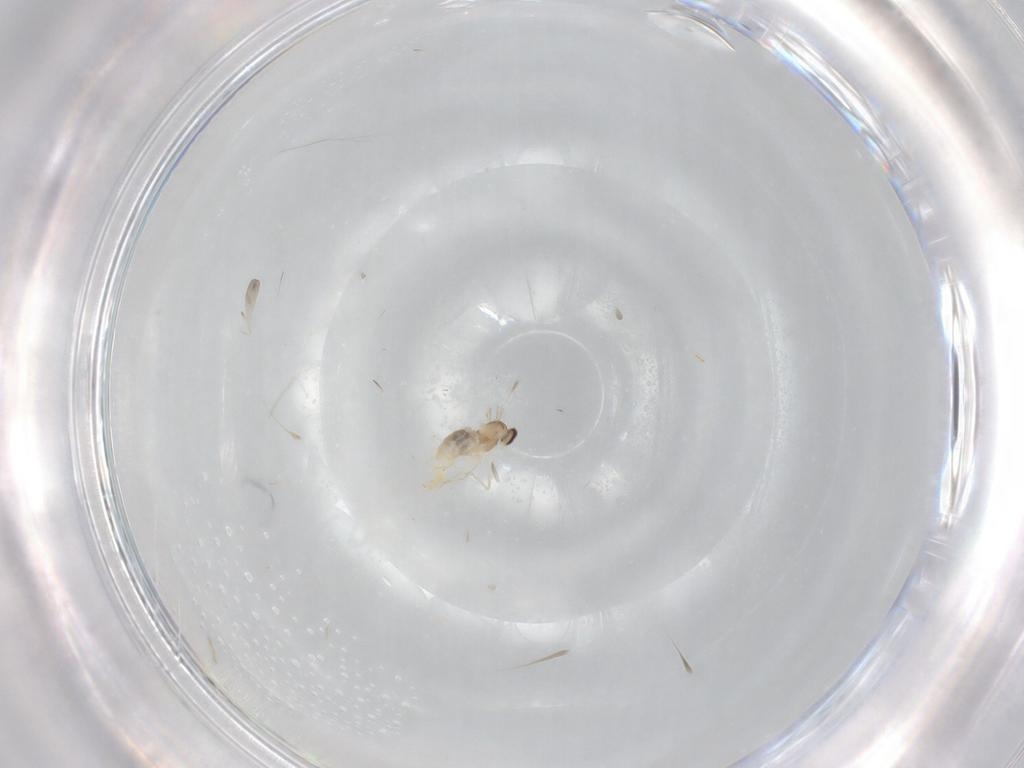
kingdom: Animalia
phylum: Arthropoda
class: Insecta
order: Diptera
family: Cecidomyiidae
